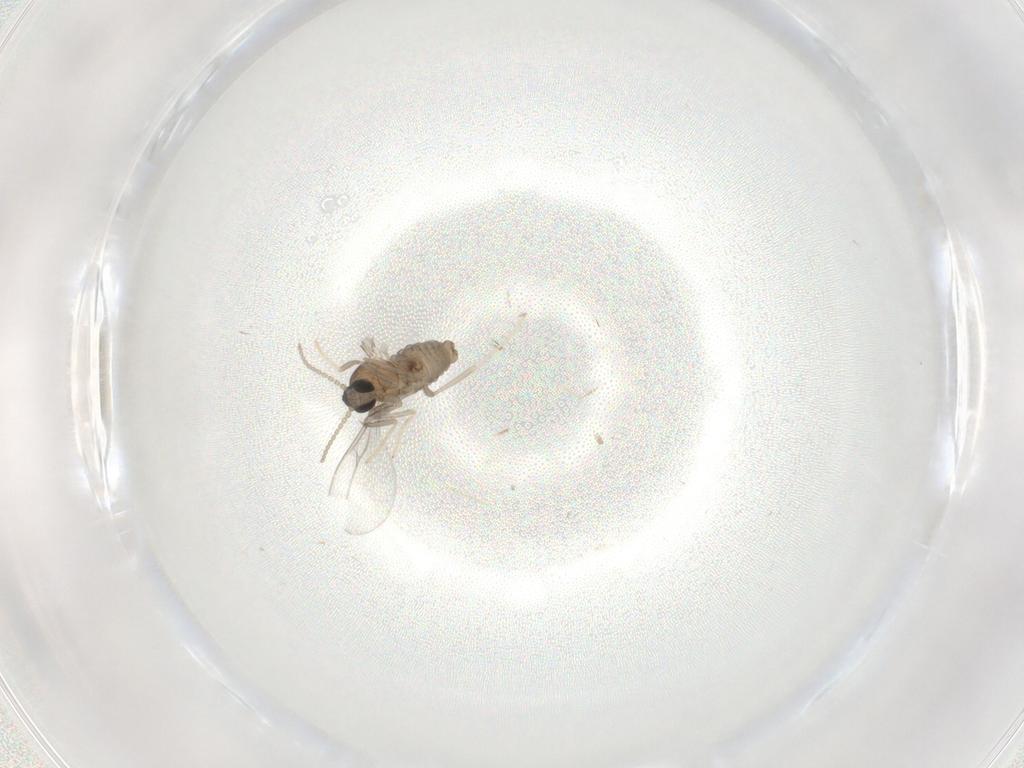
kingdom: Animalia
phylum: Arthropoda
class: Insecta
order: Diptera
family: Cecidomyiidae
